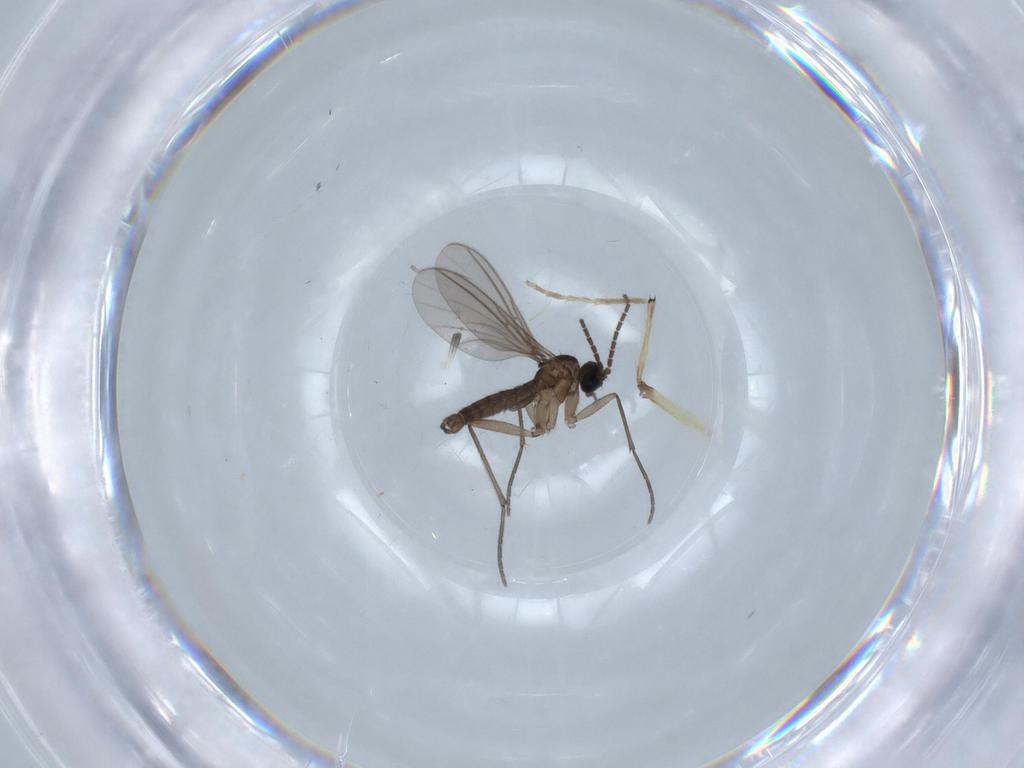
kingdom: Animalia
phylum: Arthropoda
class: Insecta
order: Diptera
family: Sciaridae
